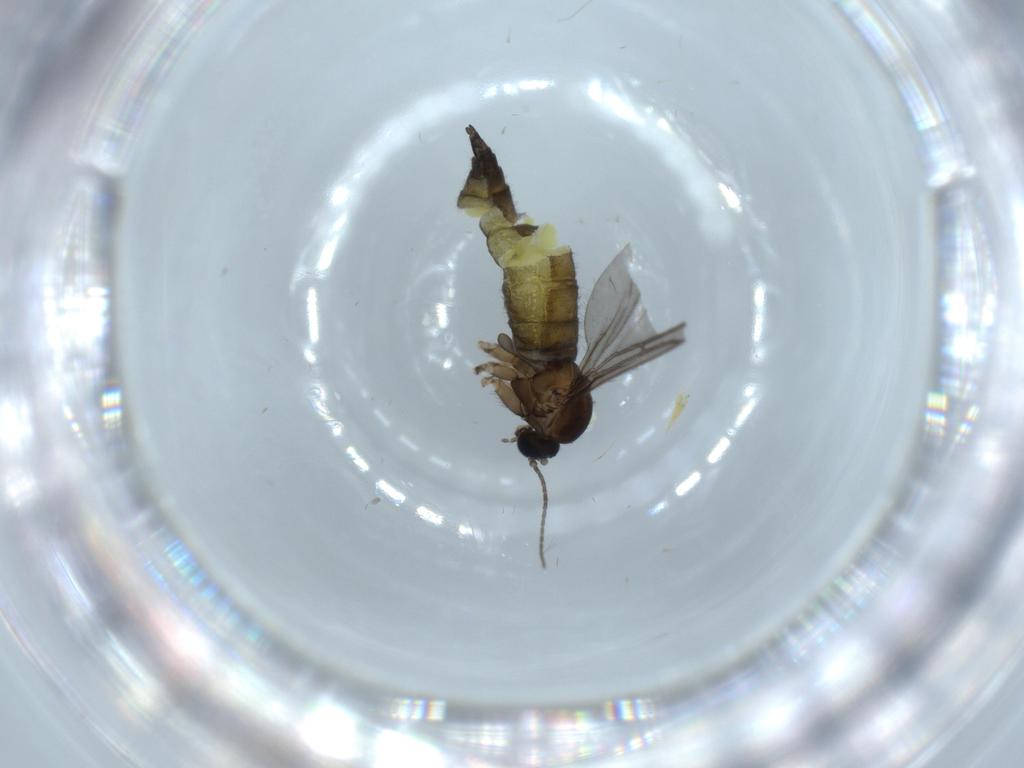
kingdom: Animalia
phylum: Arthropoda
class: Insecta
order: Diptera
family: Sciaridae
